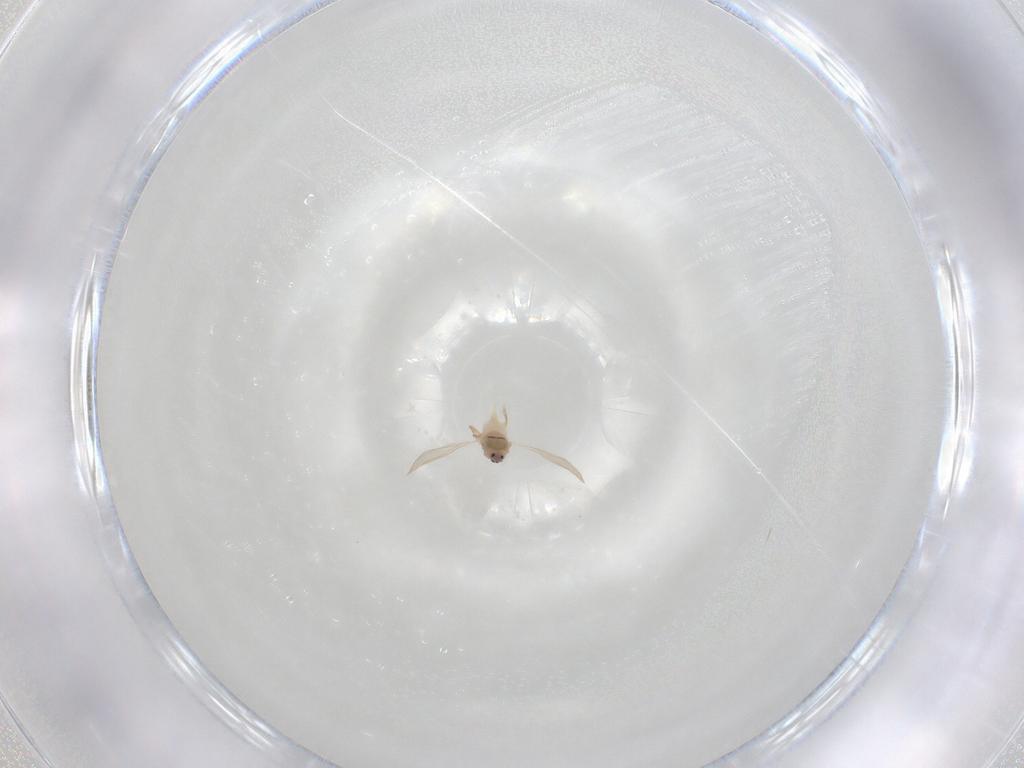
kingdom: Animalia
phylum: Arthropoda
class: Insecta
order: Hemiptera
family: Coccoidea_incertae_sedis
